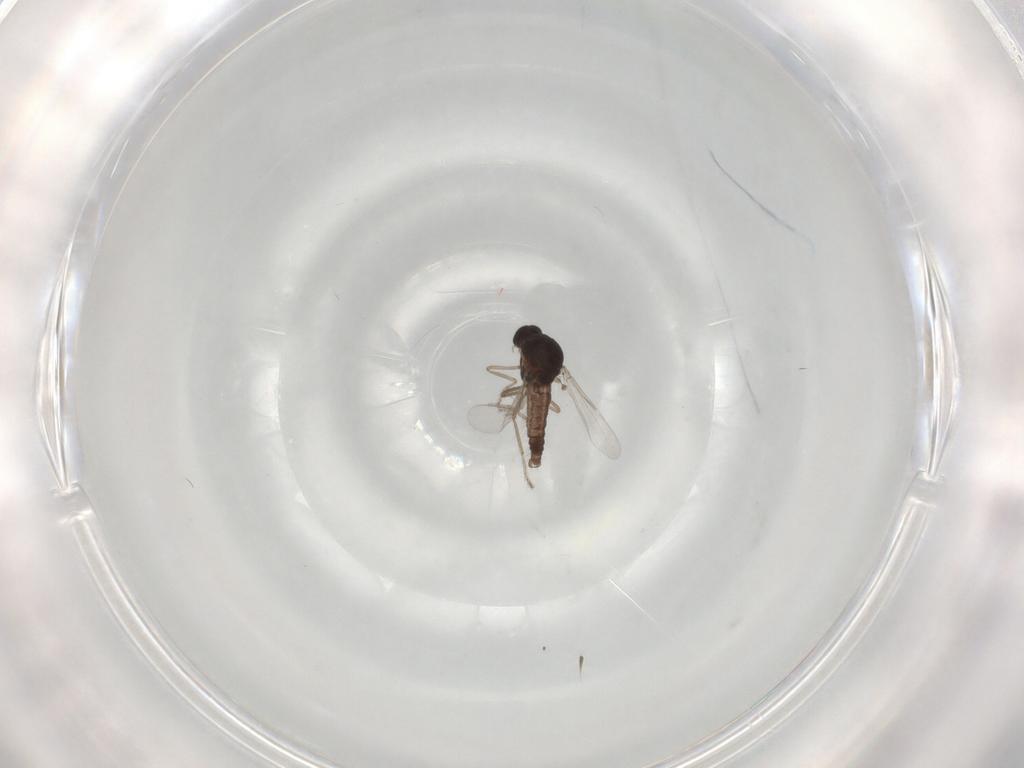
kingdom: Animalia
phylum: Arthropoda
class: Insecta
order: Diptera
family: Ceratopogonidae
